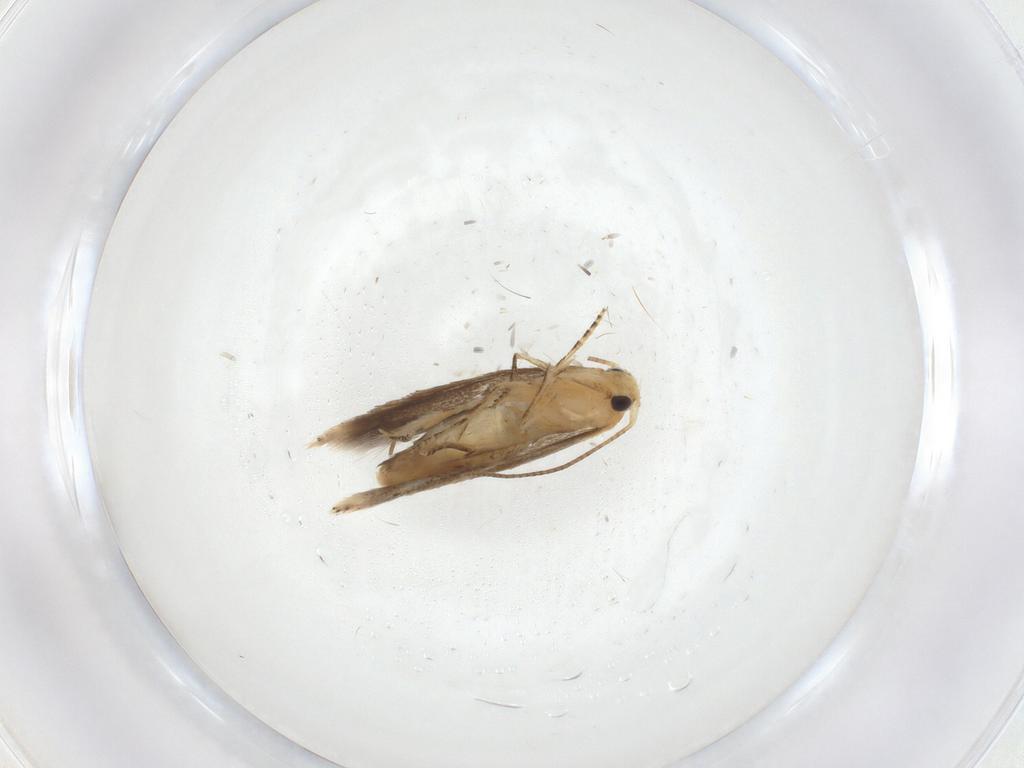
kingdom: Animalia
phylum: Arthropoda
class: Insecta
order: Lepidoptera
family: Bucculatricidae
